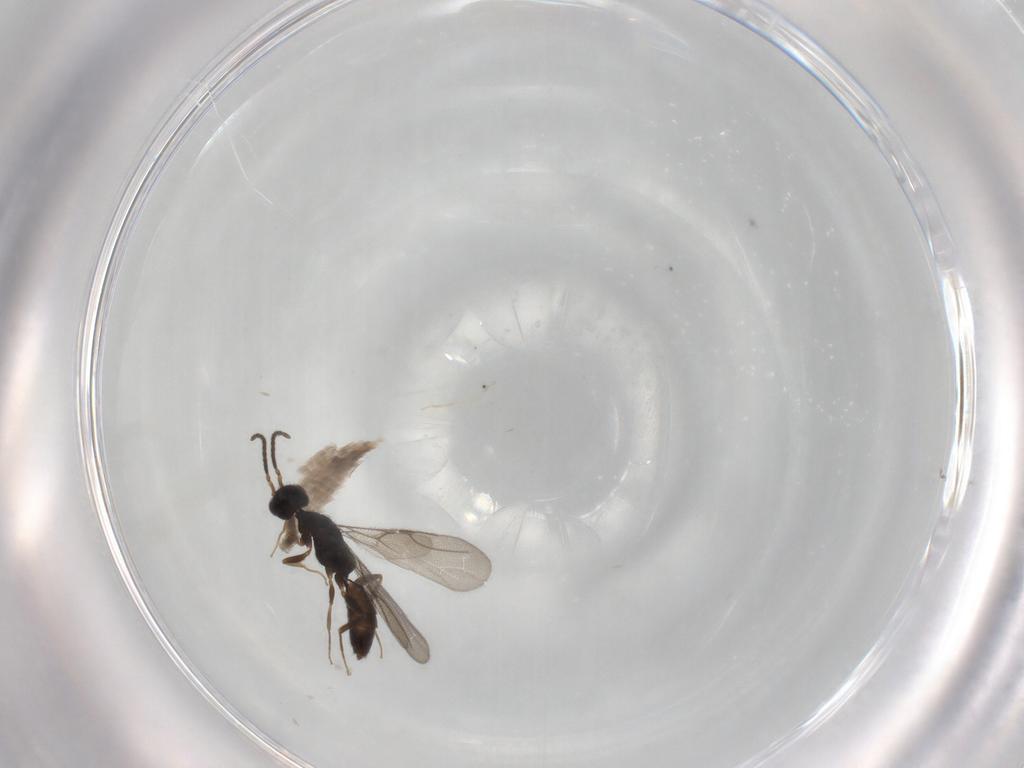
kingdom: Animalia
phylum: Arthropoda
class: Insecta
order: Hymenoptera
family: Bethylidae
